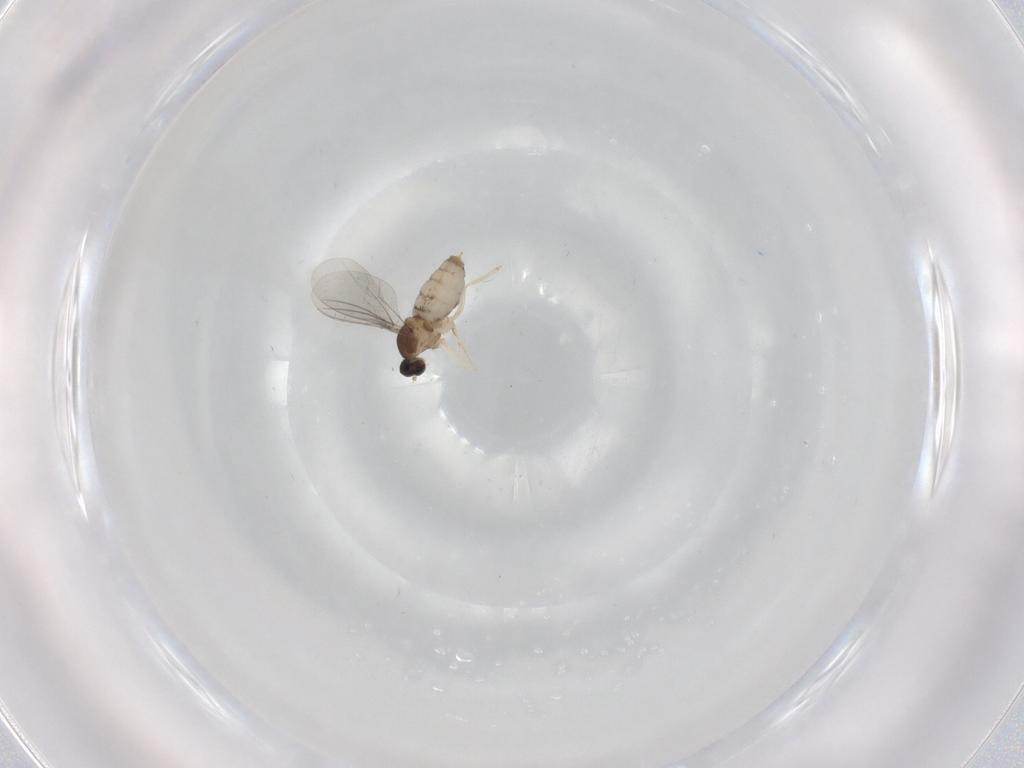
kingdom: Animalia
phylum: Arthropoda
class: Insecta
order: Diptera
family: Cecidomyiidae
